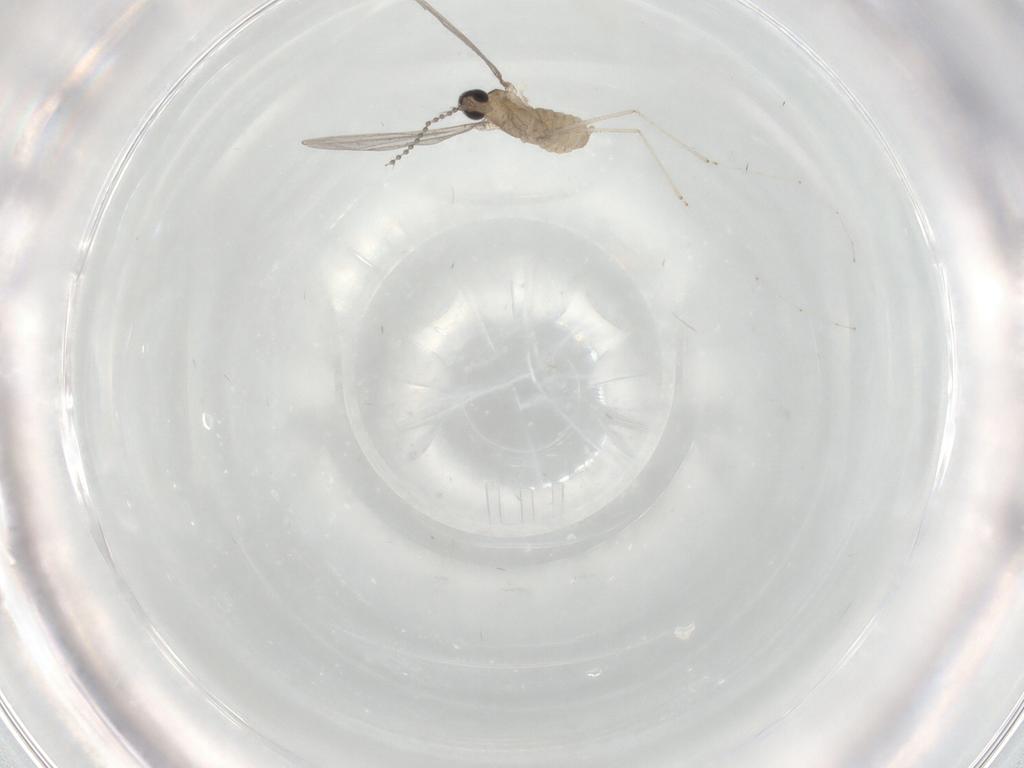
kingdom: Animalia
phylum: Arthropoda
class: Insecta
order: Diptera
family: Cecidomyiidae
